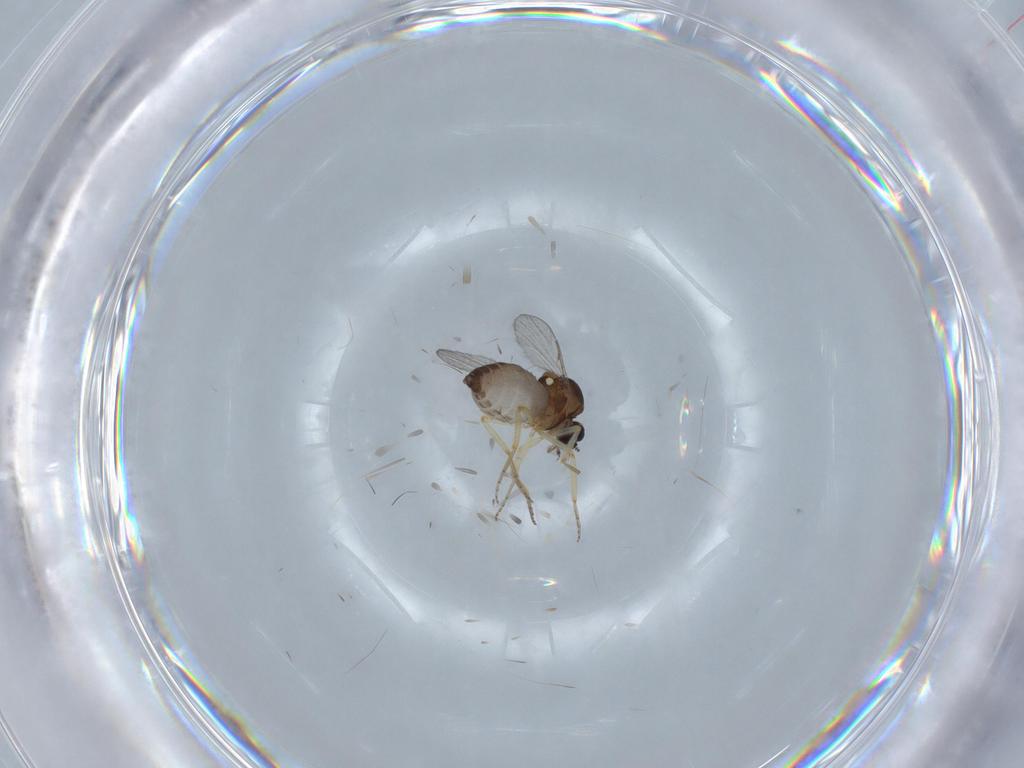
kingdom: Animalia
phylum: Arthropoda
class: Insecta
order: Diptera
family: Ceratopogonidae
